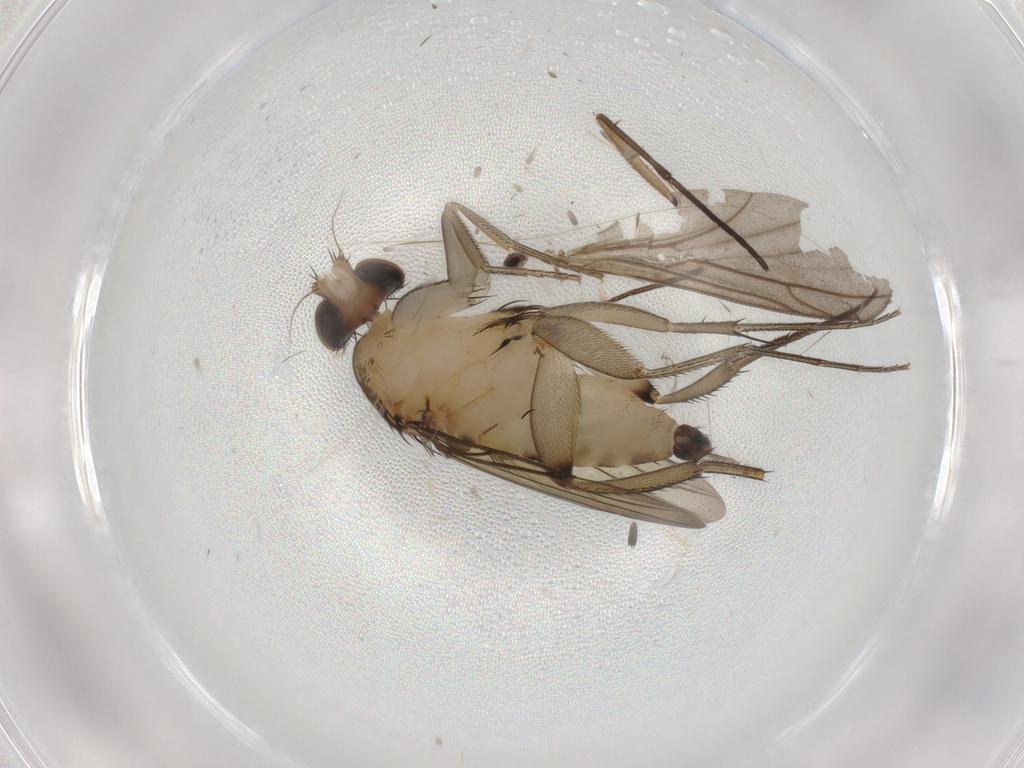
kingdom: Animalia
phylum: Arthropoda
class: Insecta
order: Diptera
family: Phoridae
